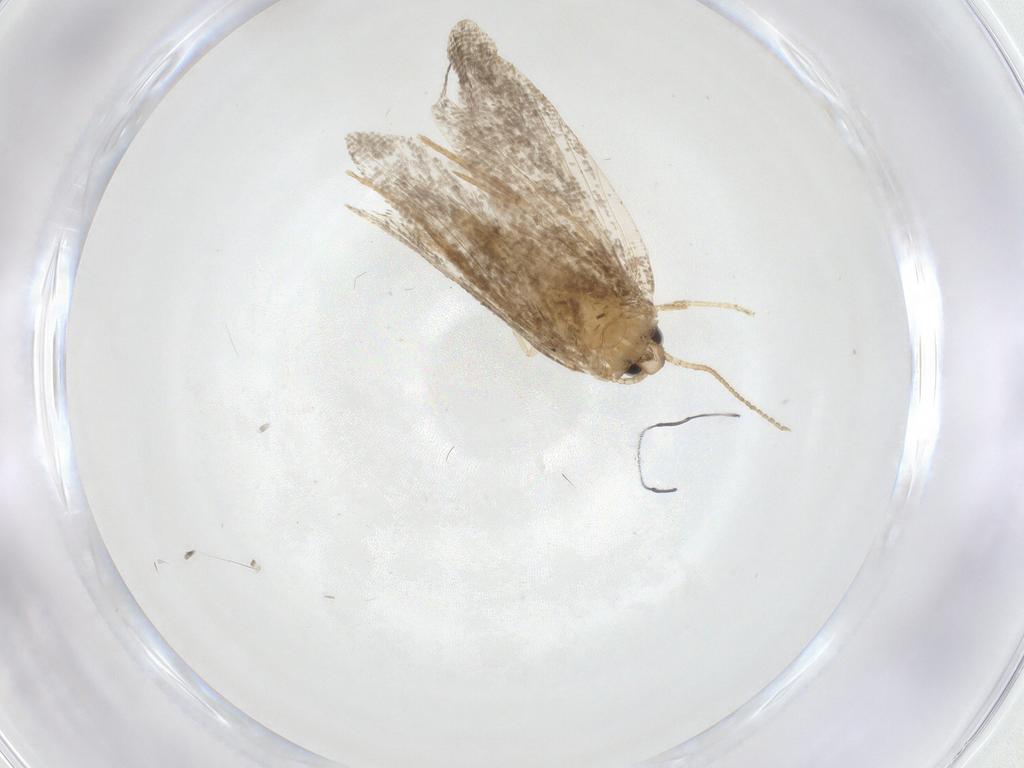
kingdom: Animalia
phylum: Arthropoda
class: Insecta
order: Lepidoptera
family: Psychidae
